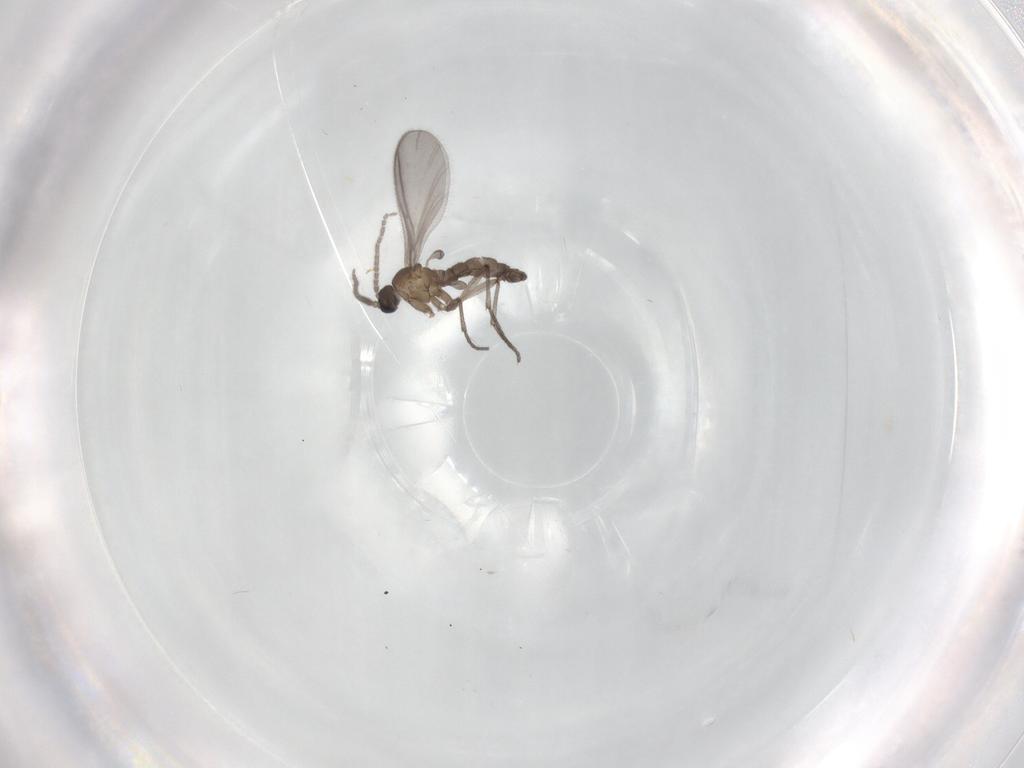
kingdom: Animalia
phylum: Arthropoda
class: Insecta
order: Diptera
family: Sciaridae
